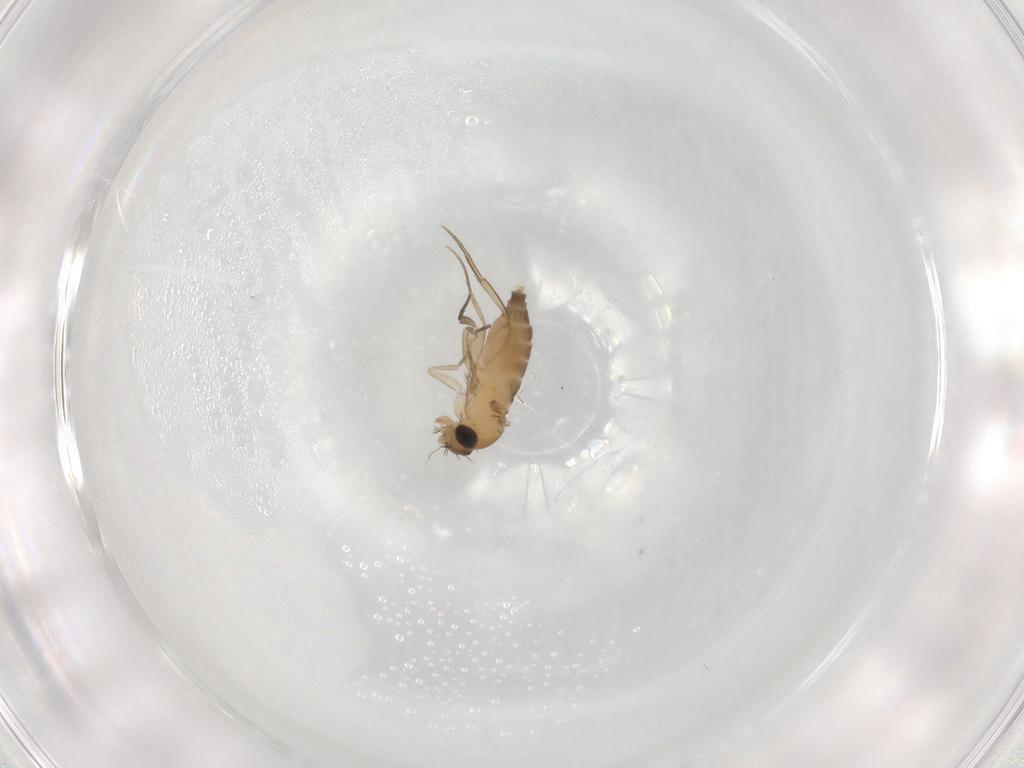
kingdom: Animalia
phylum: Arthropoda
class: Insecta
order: Diptera
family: Phoridae
